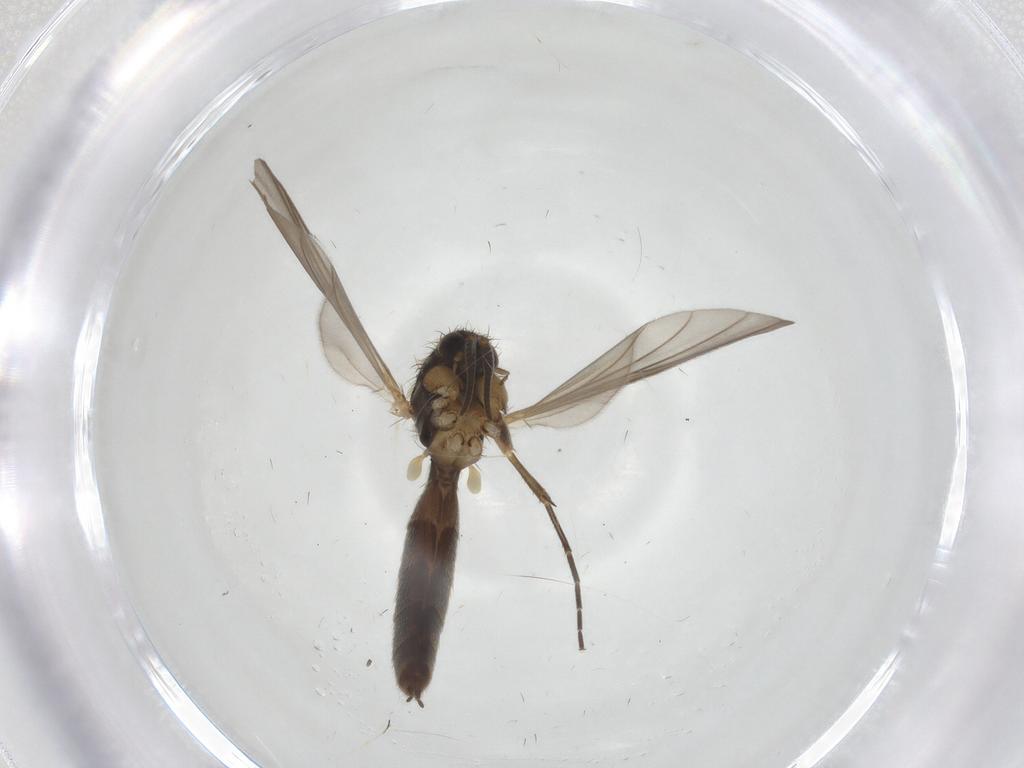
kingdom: Animalia
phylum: Arthropoda
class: Insecta
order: Diptera
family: Mycetophilidae
